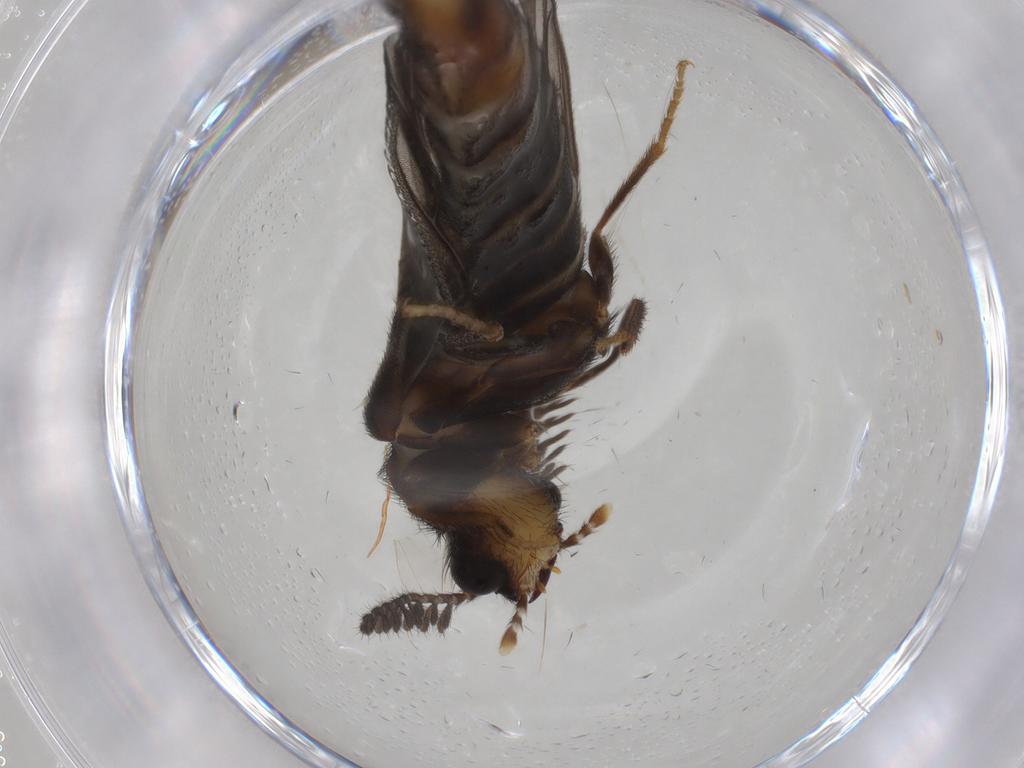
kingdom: Animalia
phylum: Arthropoda
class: Insecta
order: Coleoptera
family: Phengodidae
